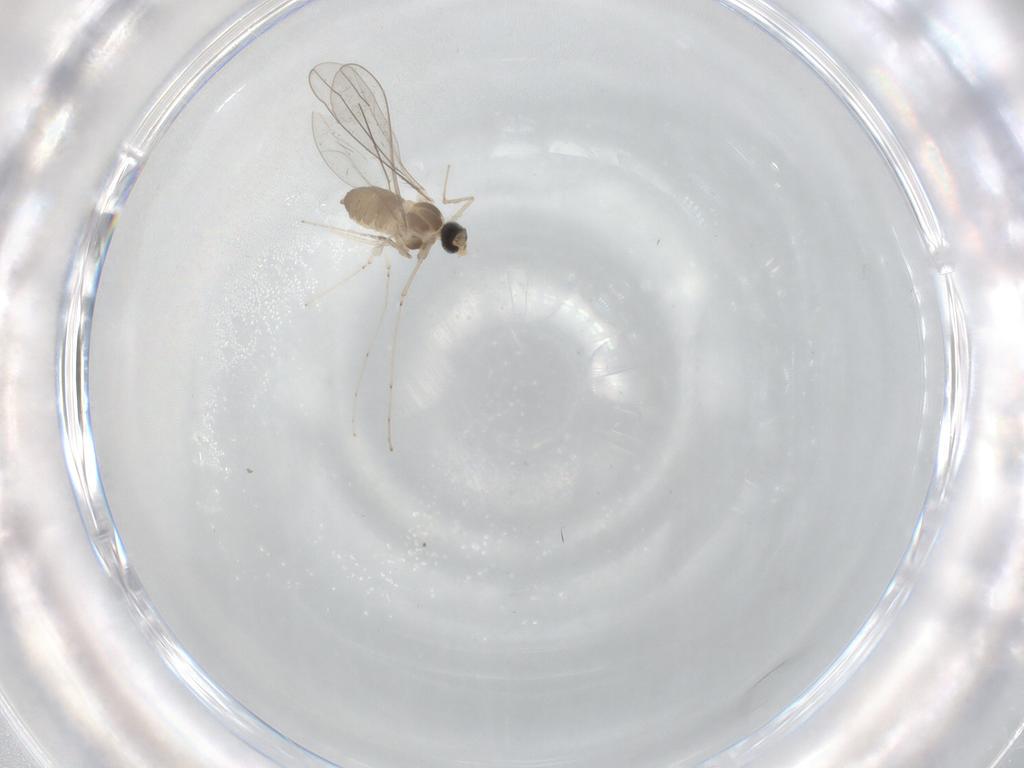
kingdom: Animalia
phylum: Arthropoda
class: Insecta
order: Diptera
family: Cecidomyiidae
